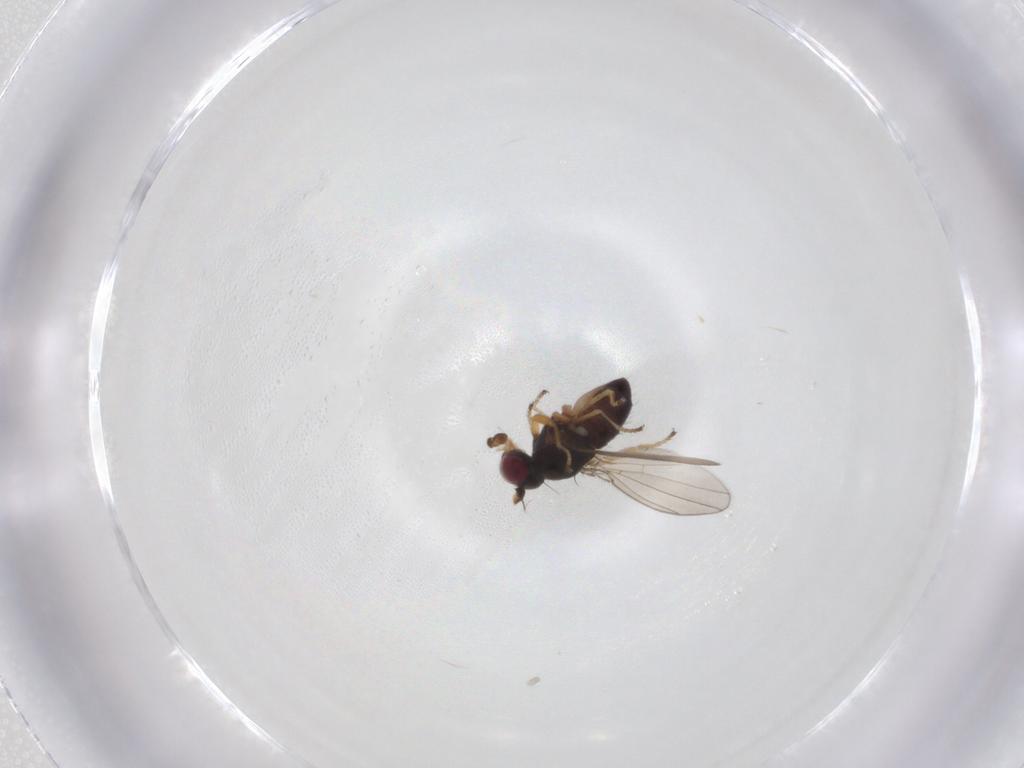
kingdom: Animalia
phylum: Arthropoda
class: Insecta
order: Diptera
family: Ephydridae
